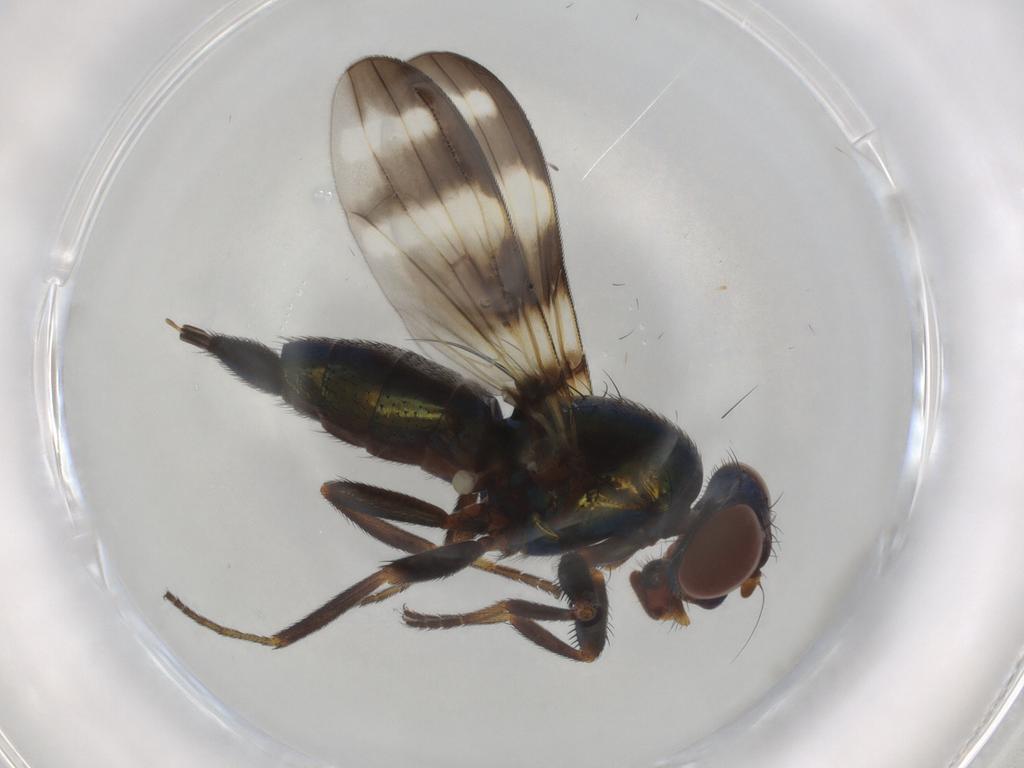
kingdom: Animalia
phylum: Arthropoda
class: Insecta
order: Diptera
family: Ulidiidae
